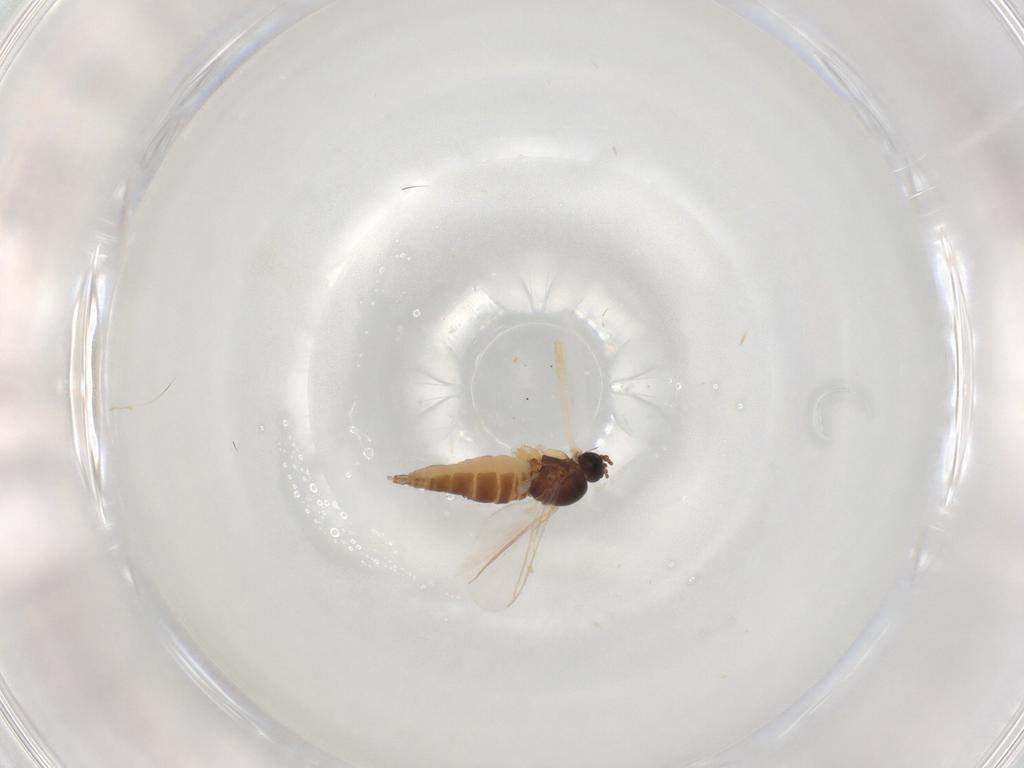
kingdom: Animalia
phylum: Arthropoda
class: Insecta
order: Diptera
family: Sciaridae
